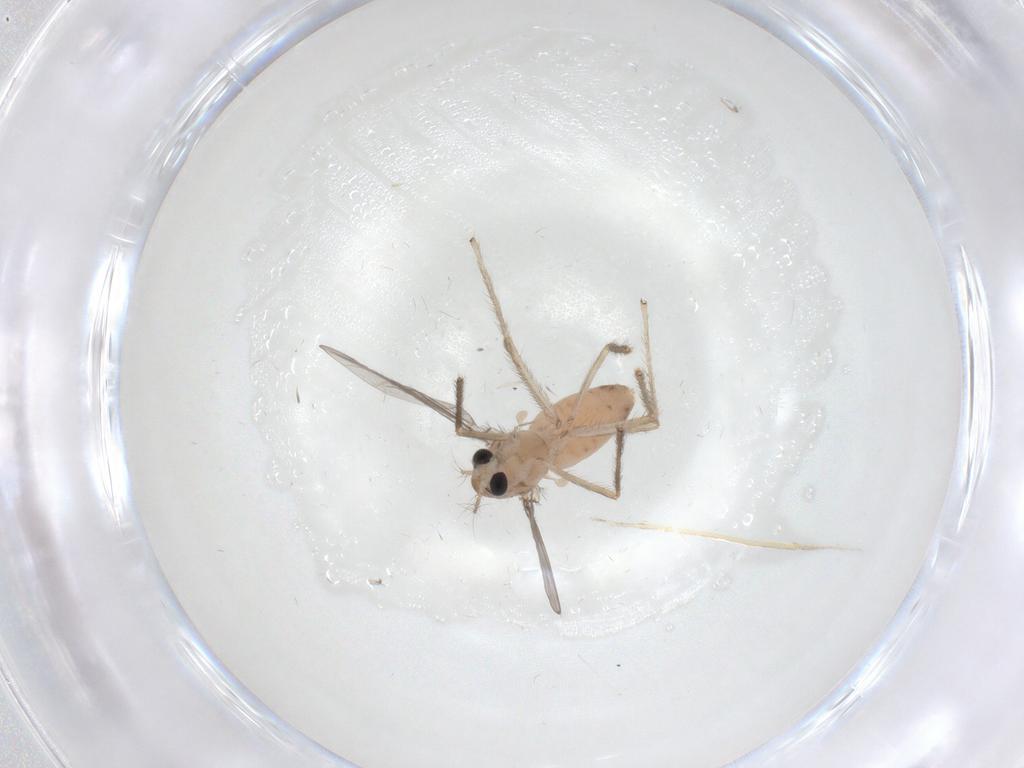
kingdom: Animalia
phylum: Arthropoda
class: Insecta
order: Diptera
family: Chironomidae
